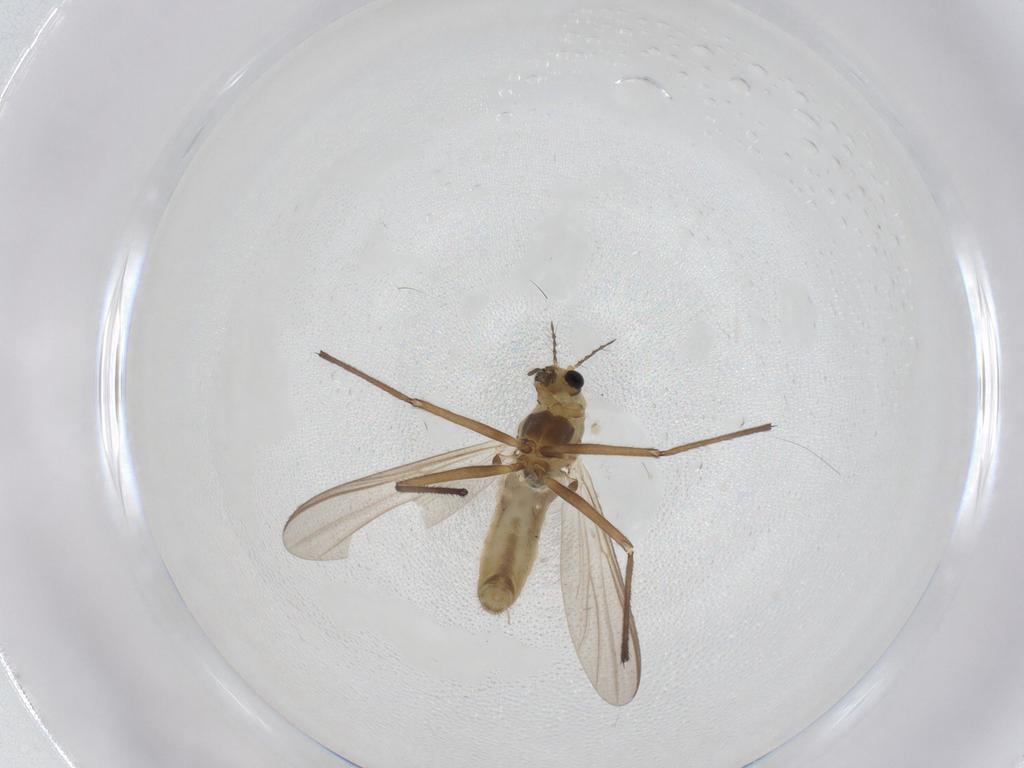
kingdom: Animalia
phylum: Arthropoda
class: Insecta
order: Diptera
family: Chironomidae
